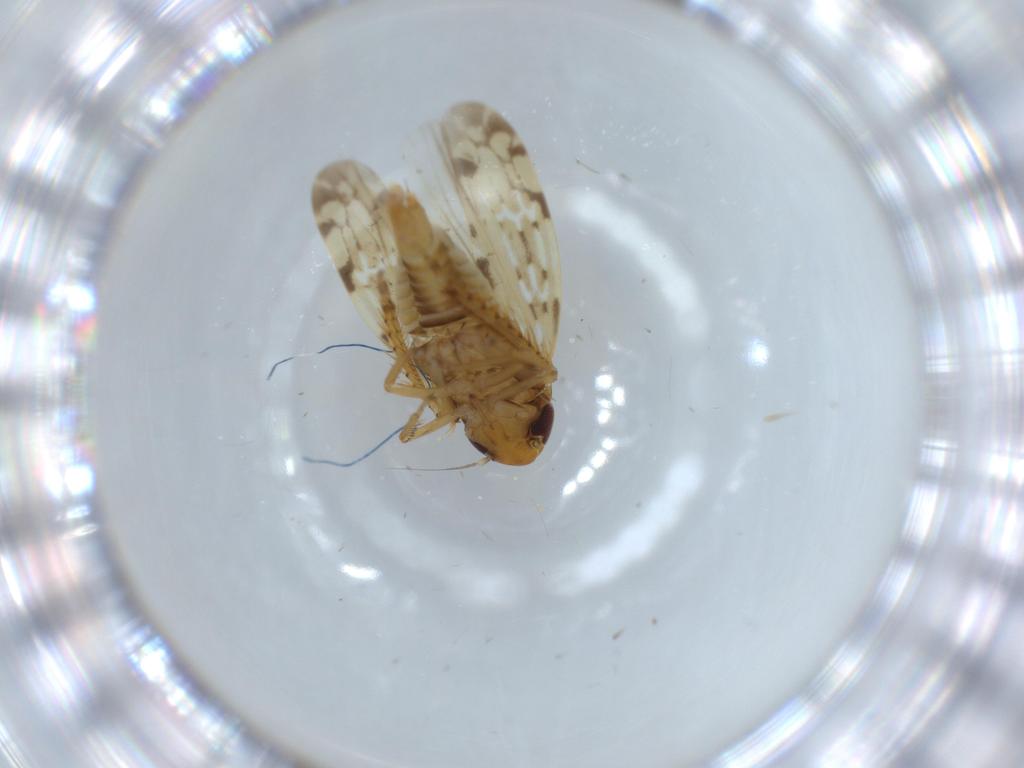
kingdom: Animalia
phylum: Arthropoda
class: Insecta
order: Hemiptera
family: Cicadellidae
